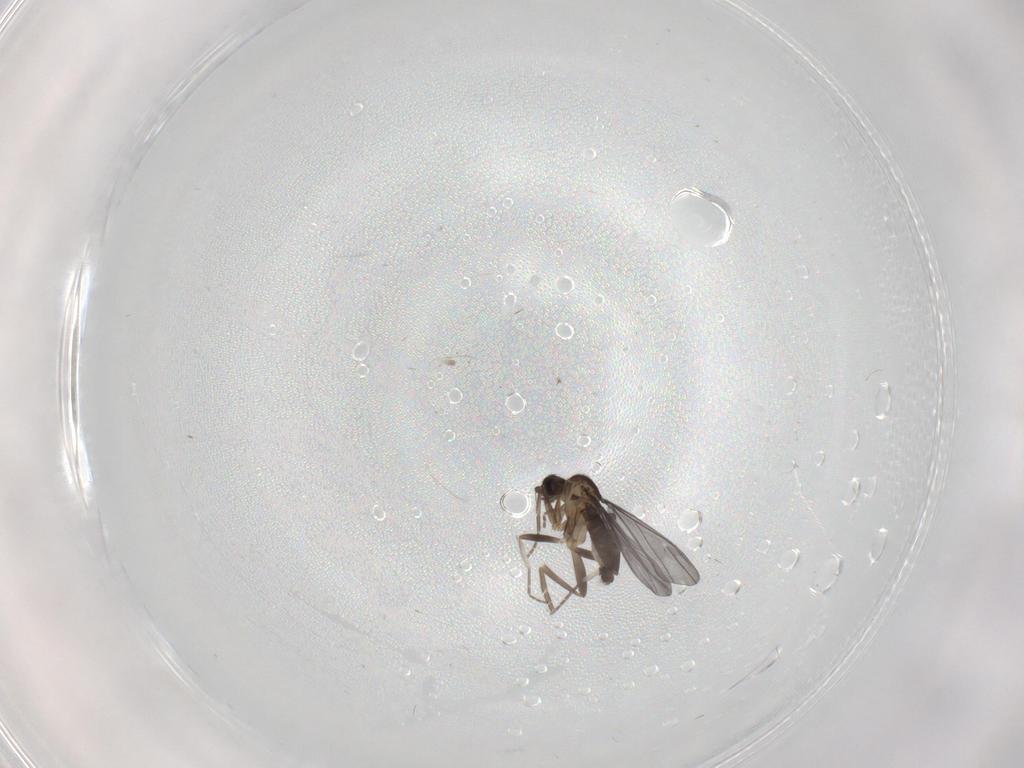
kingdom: Animalia
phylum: Arthropoda
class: Insecta
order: Diptera
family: Phoridae
